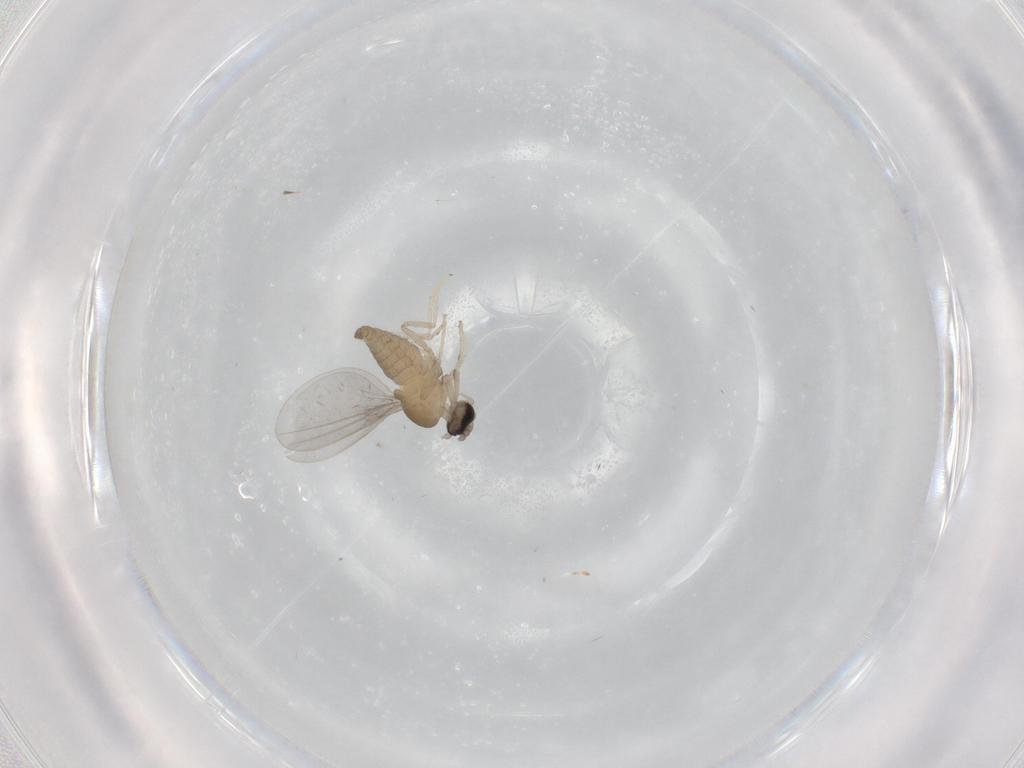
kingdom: Animalia
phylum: Arthropoda
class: Insecta
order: Diptera
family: Cecidomyiidae
